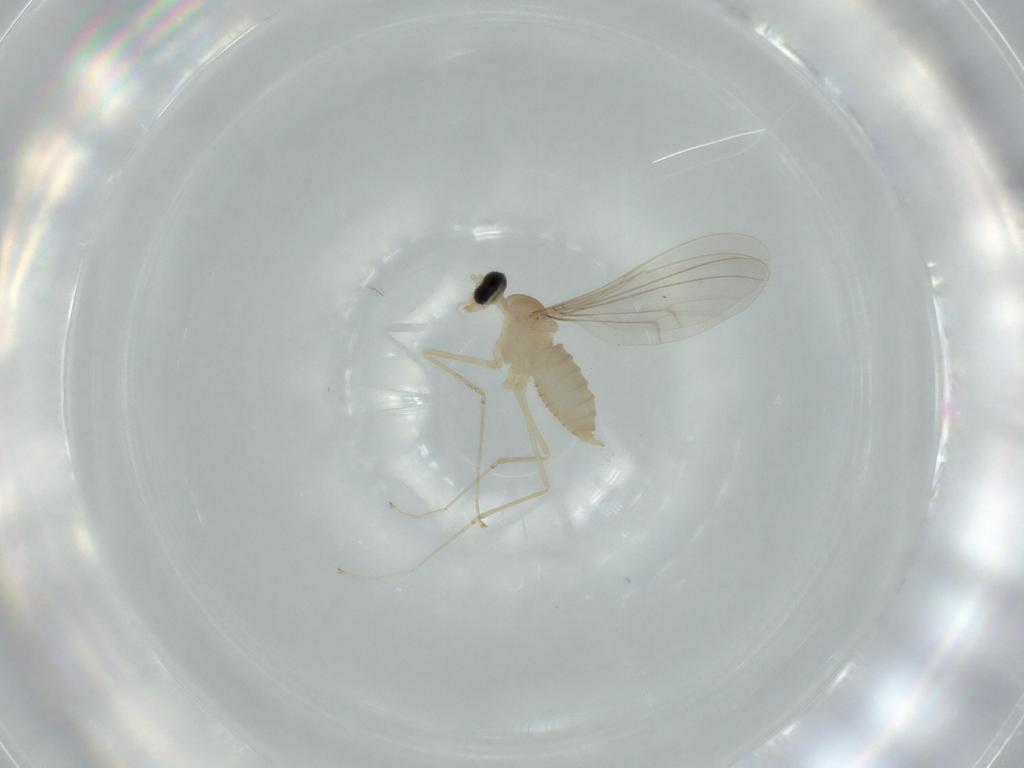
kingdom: Animalia
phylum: Arthropoda
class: Insecta
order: Diptera
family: Cecidomyiidae
